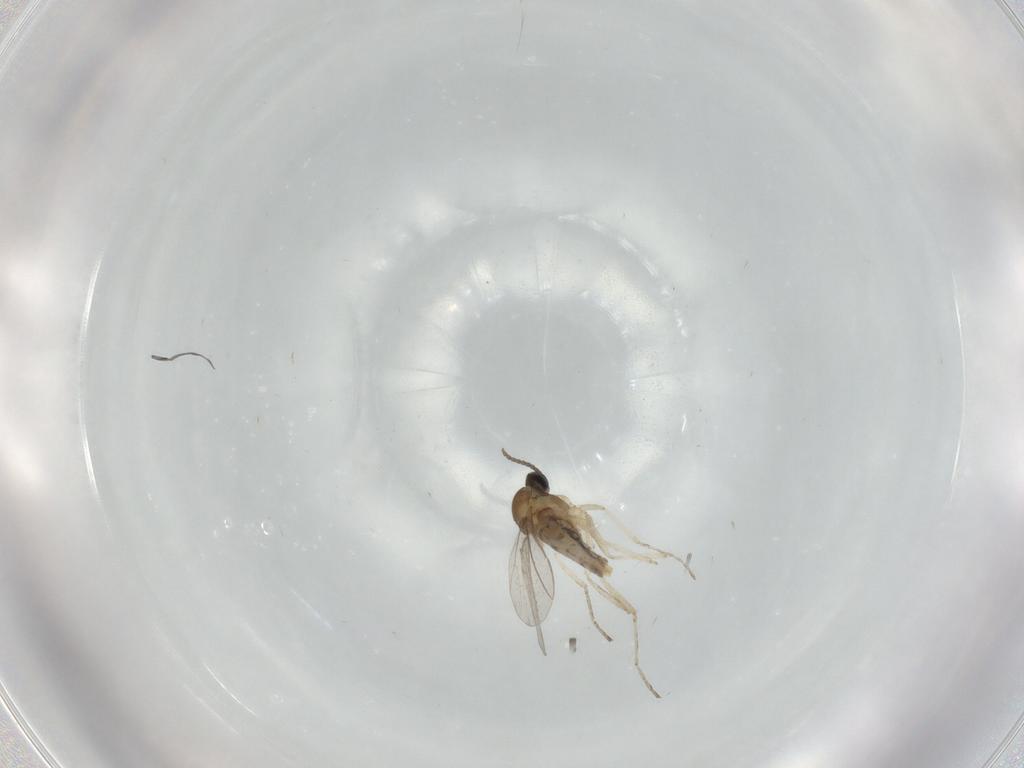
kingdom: Animalia
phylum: Arthropoda
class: Insecta
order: Diptera
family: Cecidomyiidae
